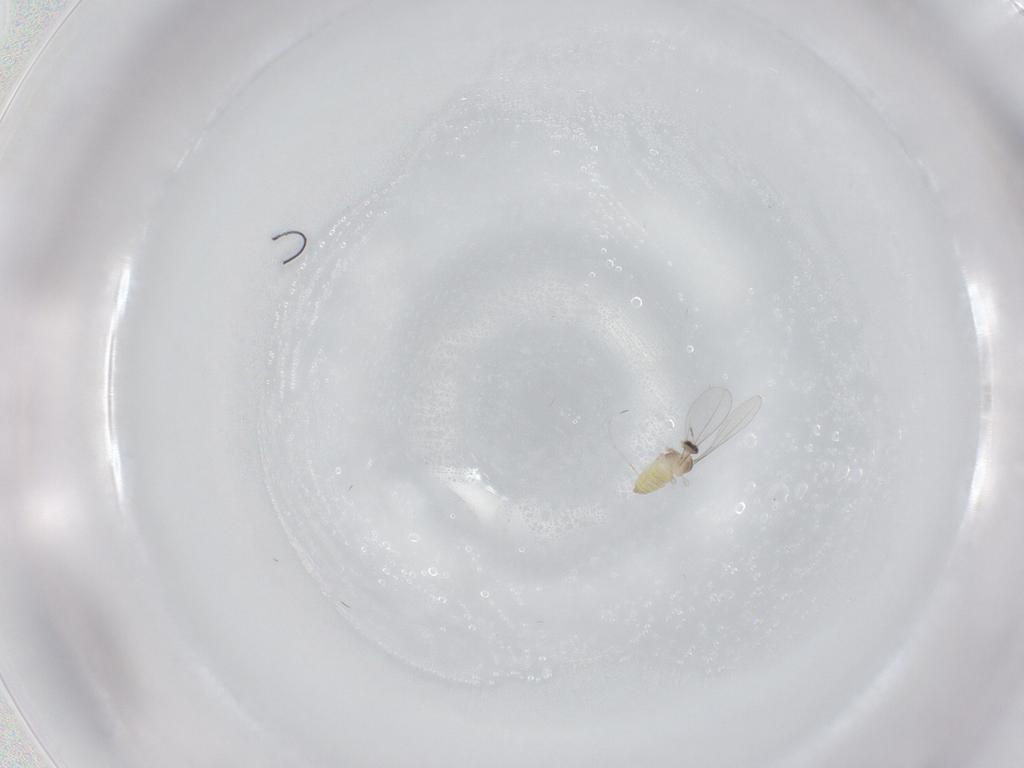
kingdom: Animalia
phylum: Arthropoda
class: Insecta
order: Diptera
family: Cecidomyiidae
